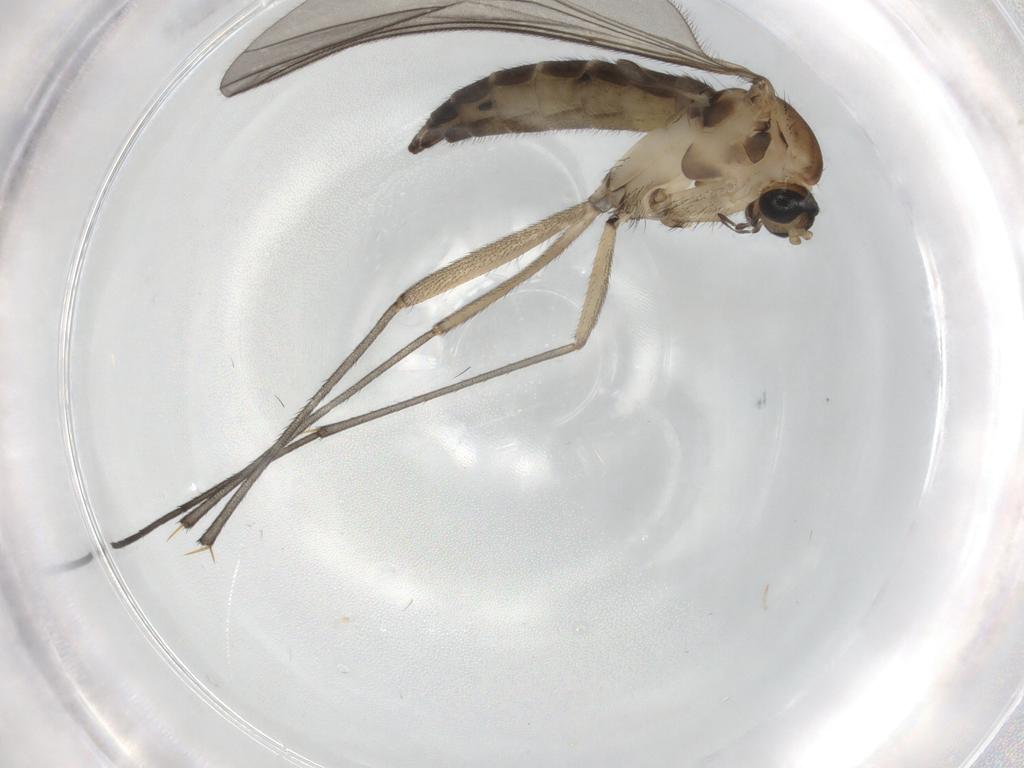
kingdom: Animalia
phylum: Arthropoda
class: Insecta
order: Diptera
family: Sciaridae
